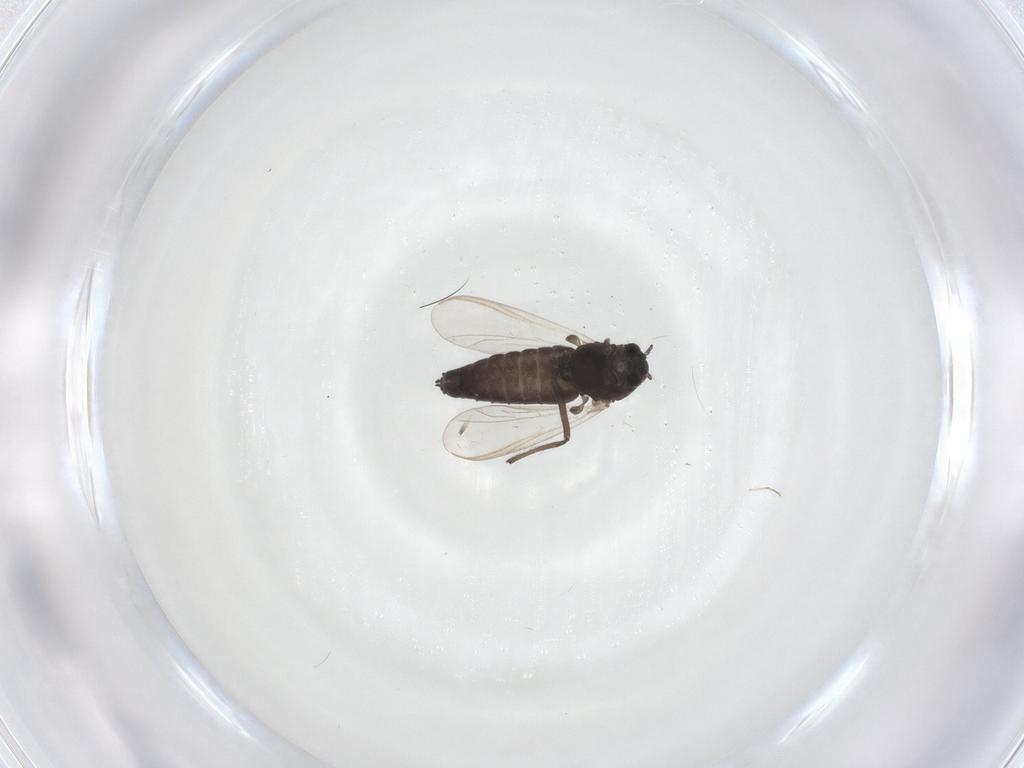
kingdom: Animalia
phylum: Arthropoda
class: Insecta
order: Diptera
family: Chironomidae
